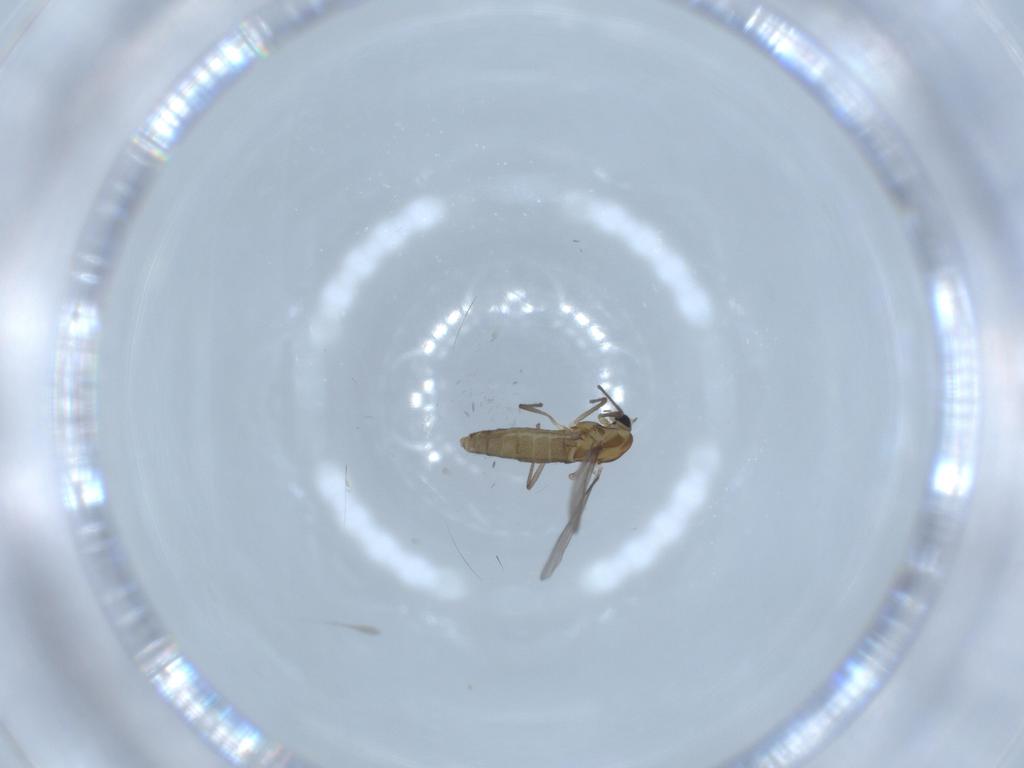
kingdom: Animalia
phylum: Arthropoda
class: Insecta
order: Diptera
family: Cecidomyiidae
